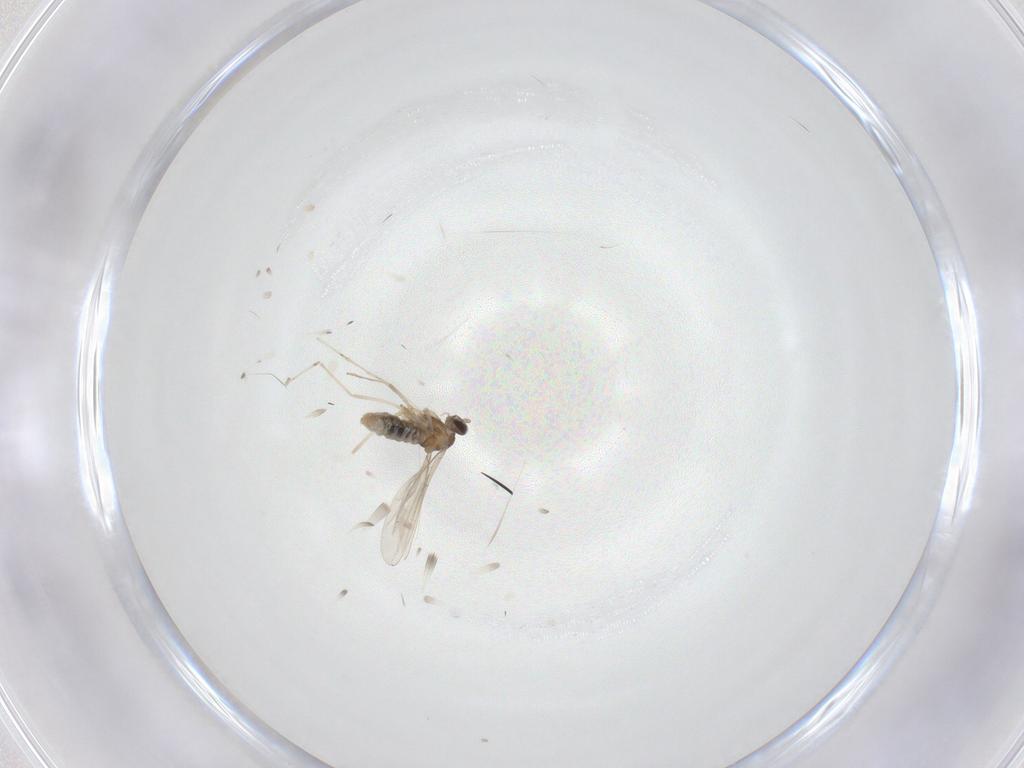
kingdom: Animalia
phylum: Arthropoda
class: Insecta
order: Diptera
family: Cecidomyiidae
